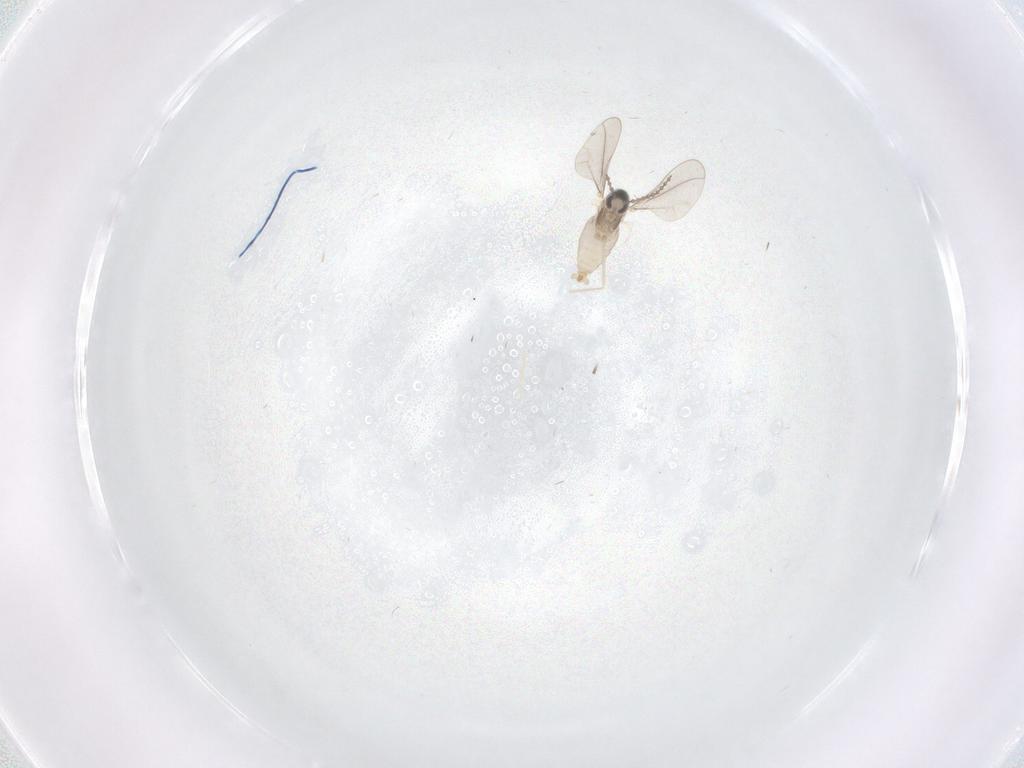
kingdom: Animalia
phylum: Arthropoda
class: Insecta
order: Diptera
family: Cecidomyiidae
